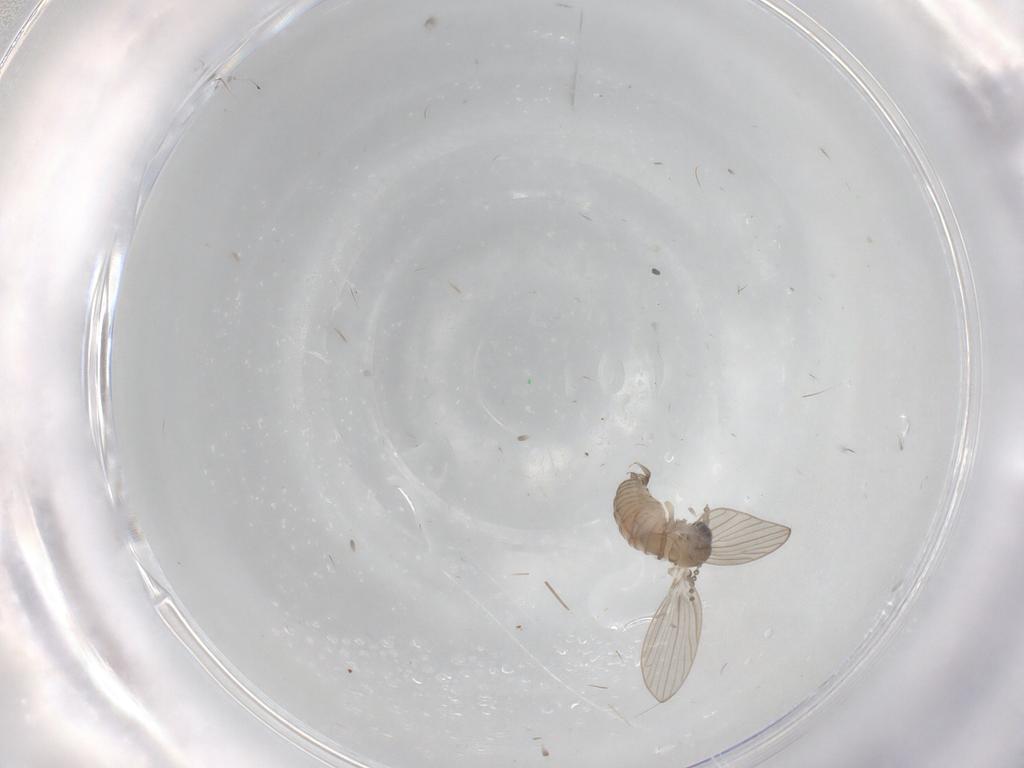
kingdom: Animalia
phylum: Arthropoda
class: Insecta
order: Diptera
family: Psychodidae
